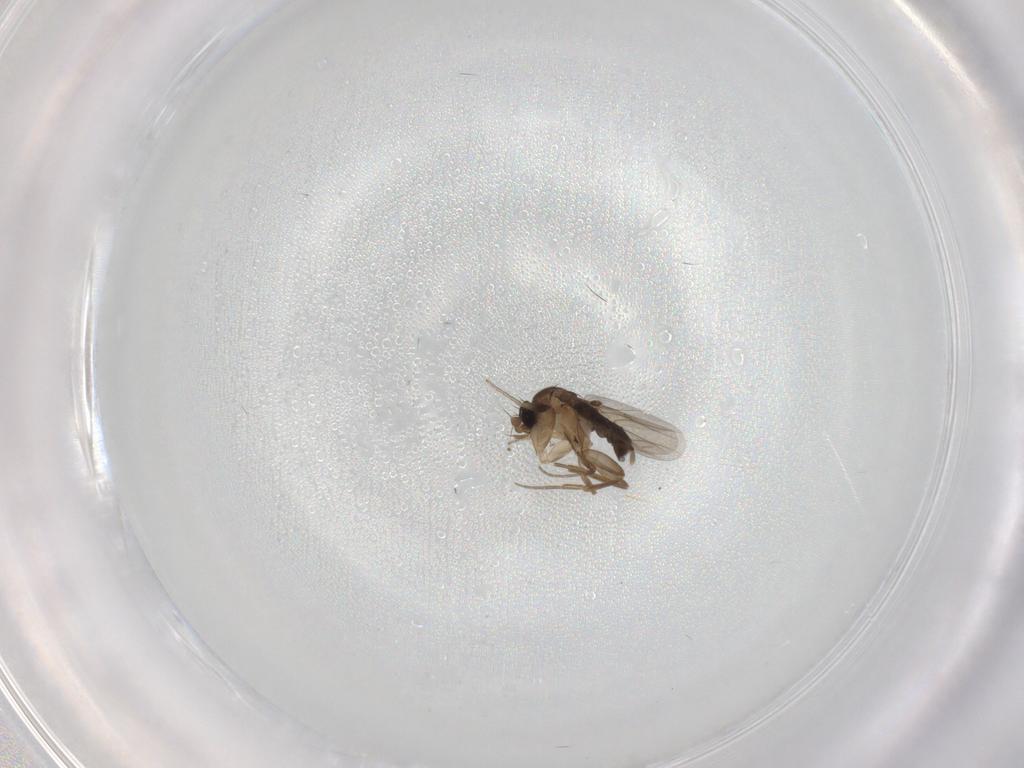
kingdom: Animalia
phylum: Arthropoda
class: Insecta
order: Diptera
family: Phoridae
